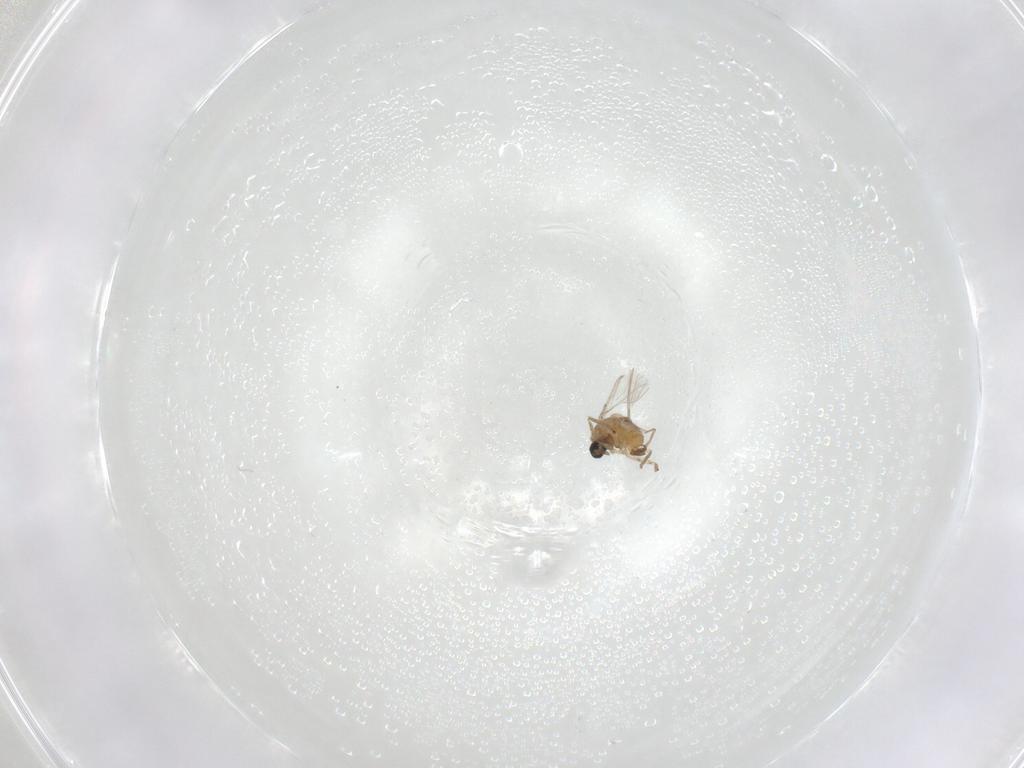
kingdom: Animalia
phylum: Arthropoda
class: Insecta
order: Diptera
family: Cecidomyiidae
